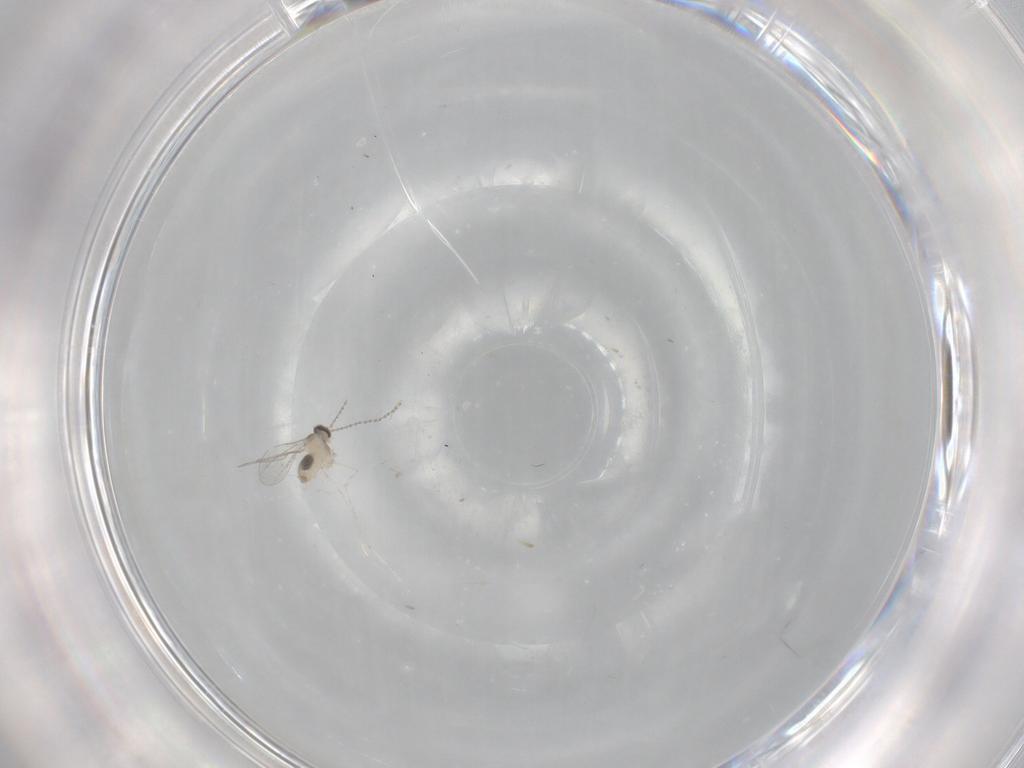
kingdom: Animalia
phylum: Arthropoda
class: Insecta
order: Diptera
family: Cecidomyiidae
